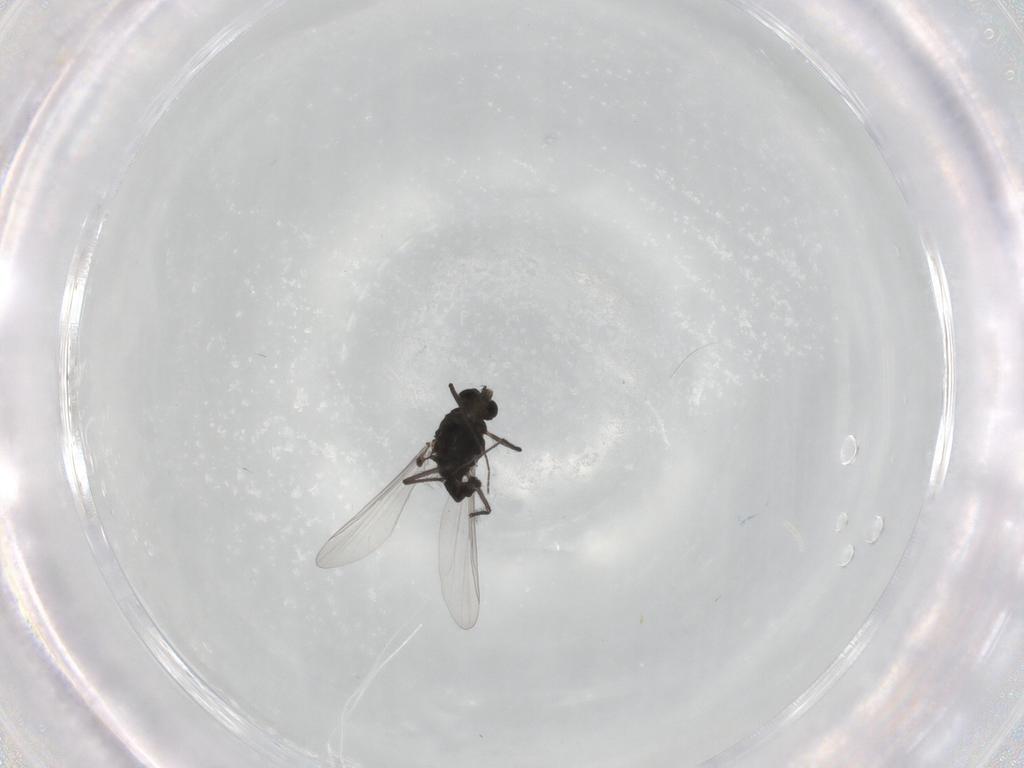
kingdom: Animalia
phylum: Arthropoda
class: Insecta
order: Diptera
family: Chironomidae
